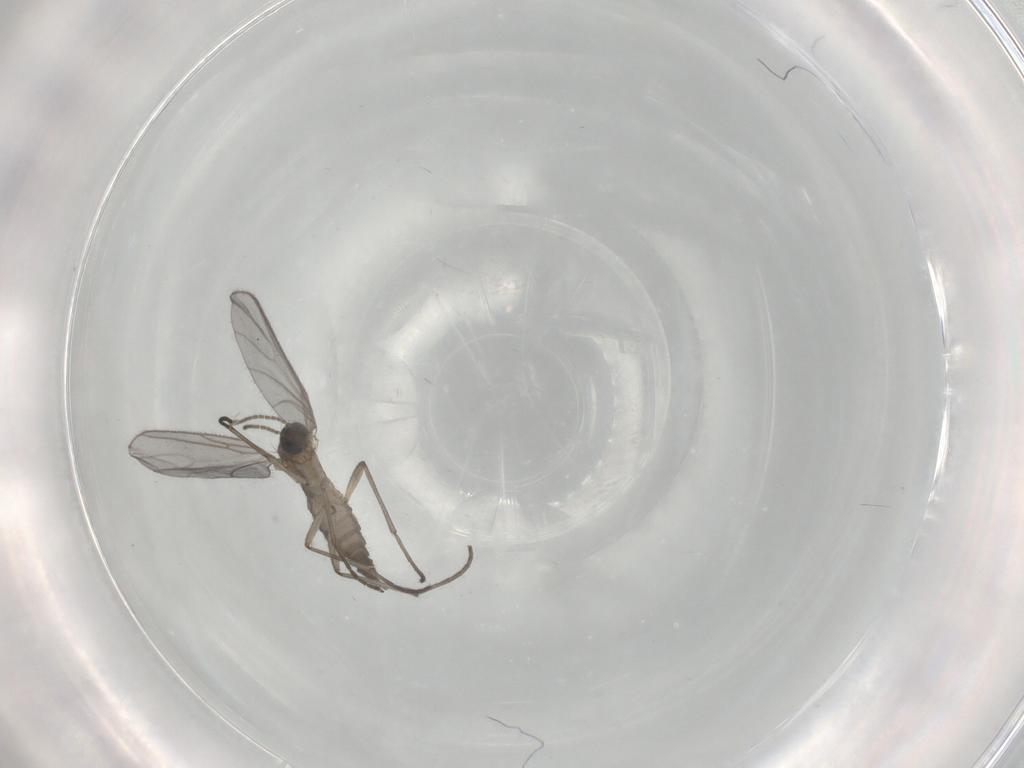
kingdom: Animalia
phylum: Arthropoda
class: Insecta
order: Diptera
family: Sciaridae
